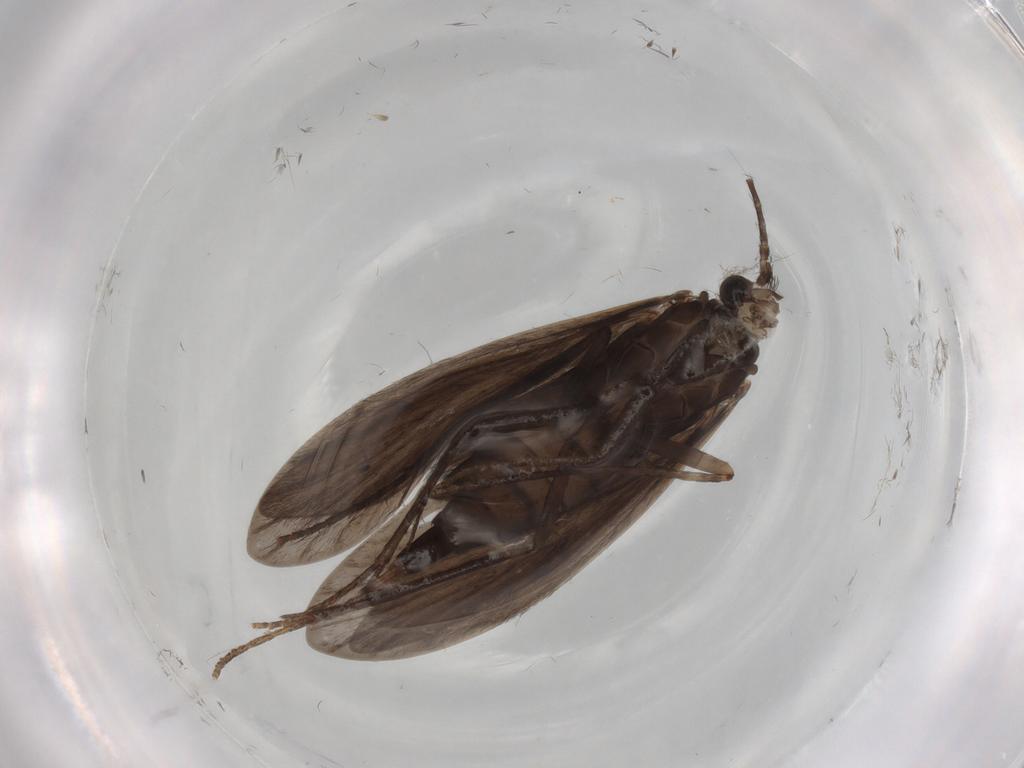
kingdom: Animalia
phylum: Arthropoda
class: Insecta
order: Trichoptera
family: Xiphocentronidae
